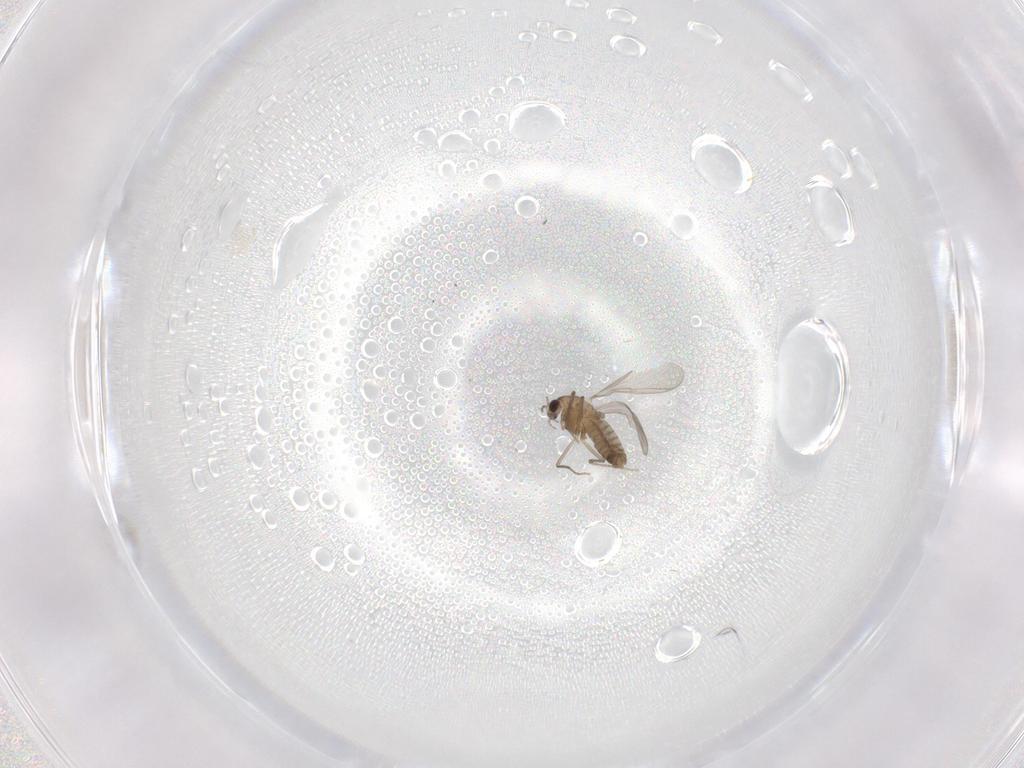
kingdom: Animalia
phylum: Arthropoda
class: Insecta
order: Diptera
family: Chironomidae
